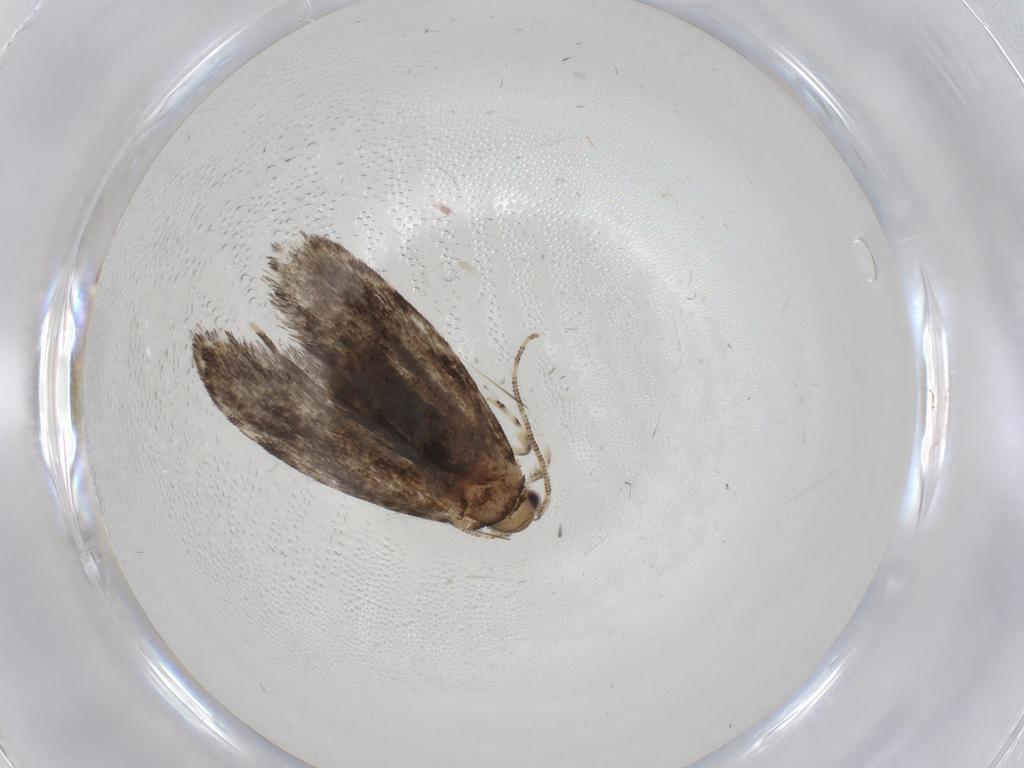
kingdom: Animalia
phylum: Arthropoda
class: Insecta
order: Lepidoptera
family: Tineidae
